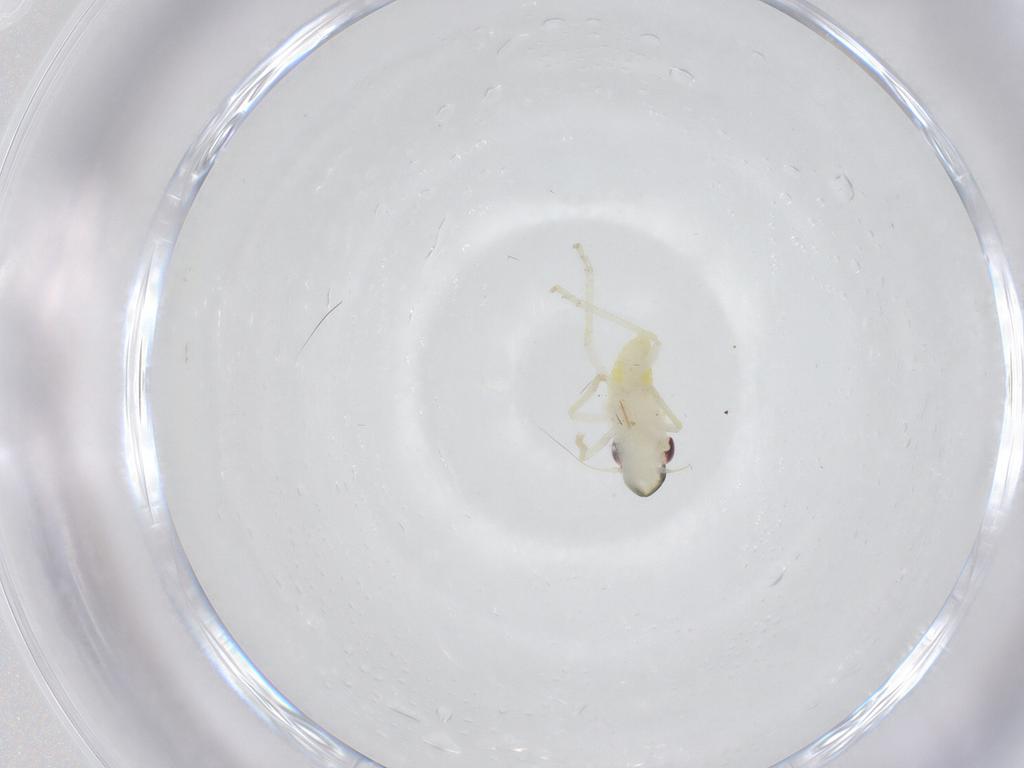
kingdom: Animalia
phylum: Arthropoda
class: Insecta
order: Hemiptera
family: Cicadellidae
